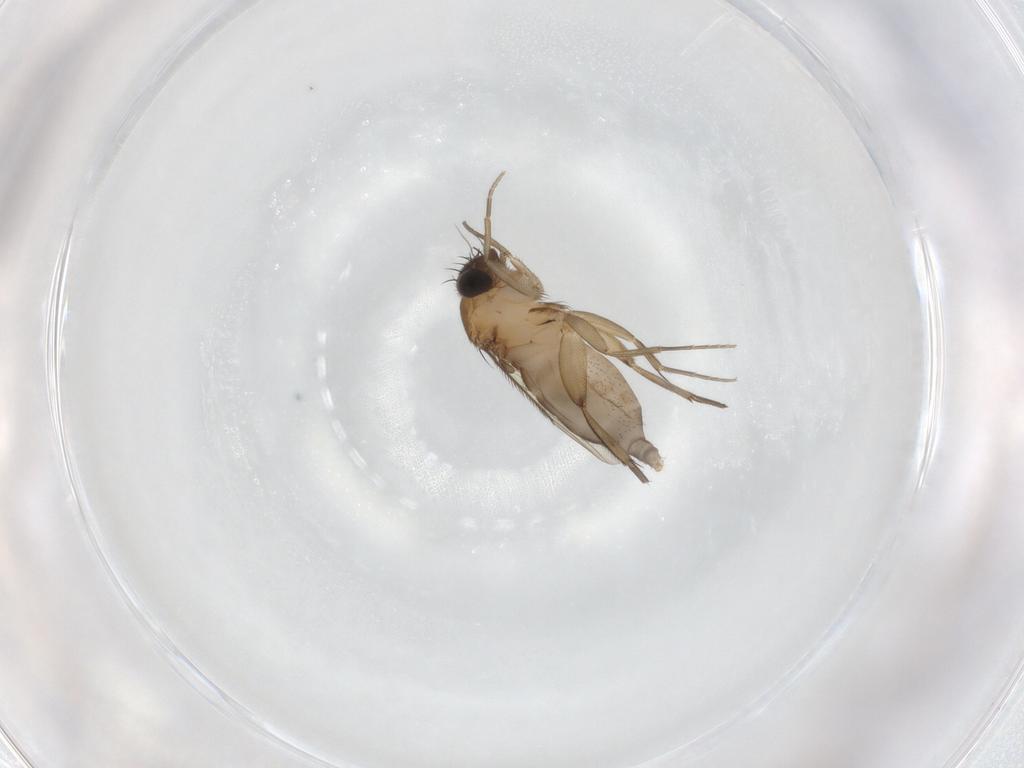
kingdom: Animalia
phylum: Arthropoda
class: Insecta
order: Diptera
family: Phoridae
